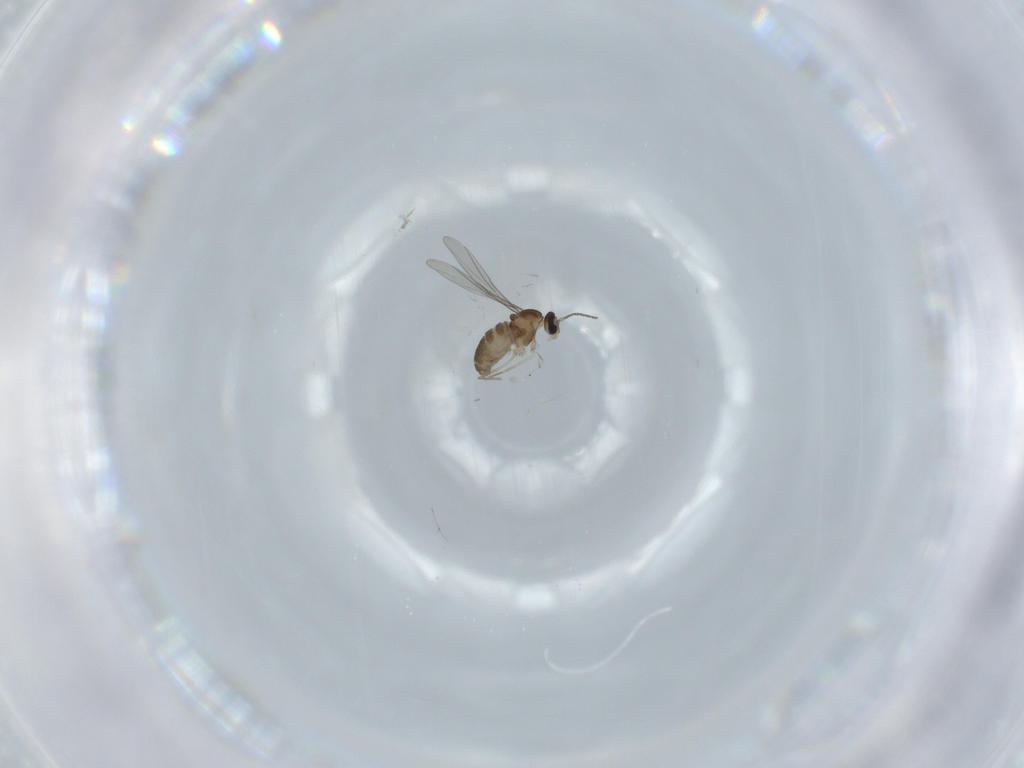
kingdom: Animalia
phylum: Arthropoda
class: Insecta
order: Diptera
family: Cecidomyiidae
